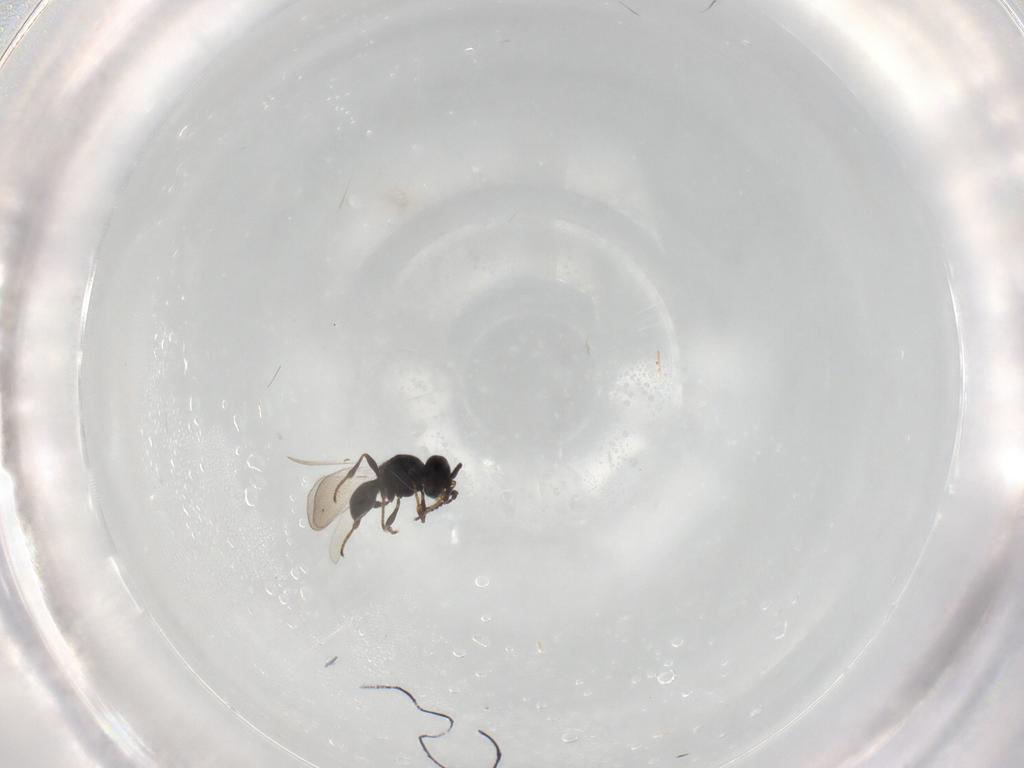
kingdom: Animalia
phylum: Arthropoda
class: Insecta
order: Hymenoptera
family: Platygastridae
